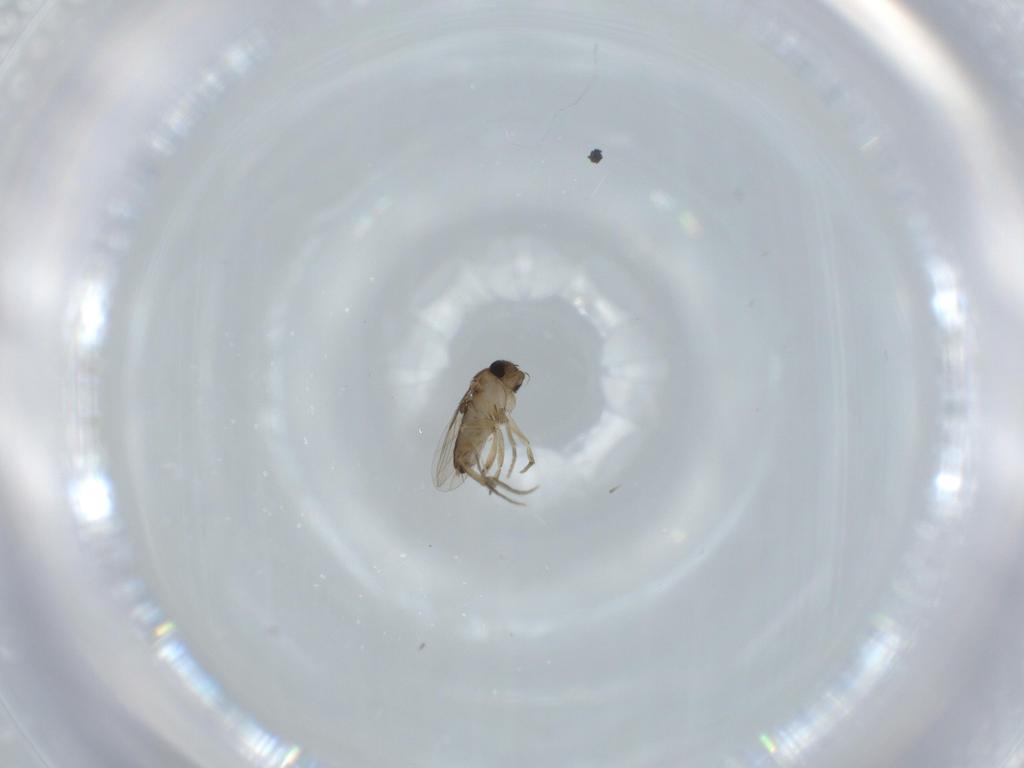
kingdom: Animalia
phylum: Arthropoda
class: Insecta
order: Diptera
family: Phoridae
